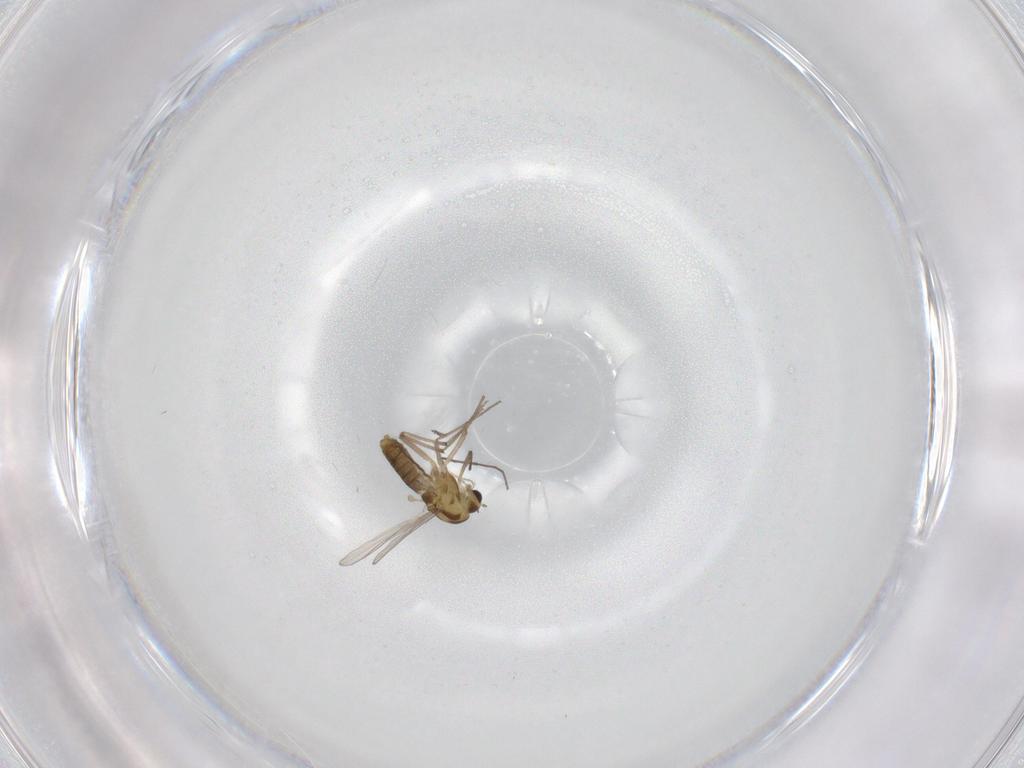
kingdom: Animalia
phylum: Arthropoda
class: Insecta
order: Diptera
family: Chironomidae
